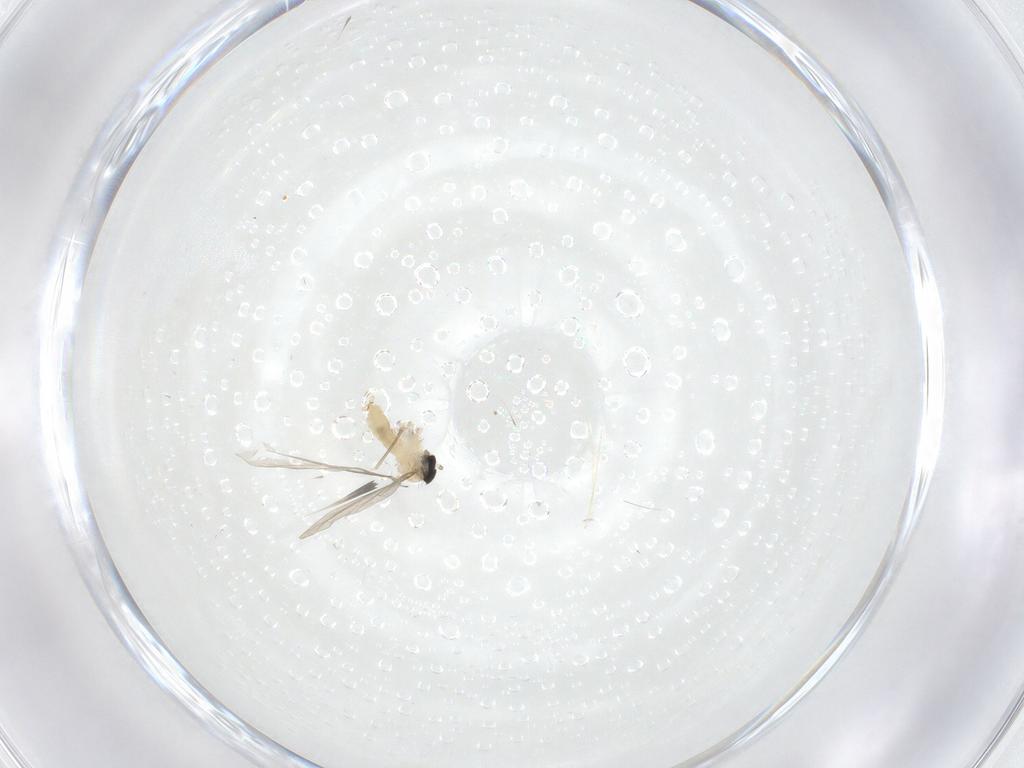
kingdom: Animalia
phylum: Arthropoda
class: Insecta
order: Diptera
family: Cecidomyiidae
